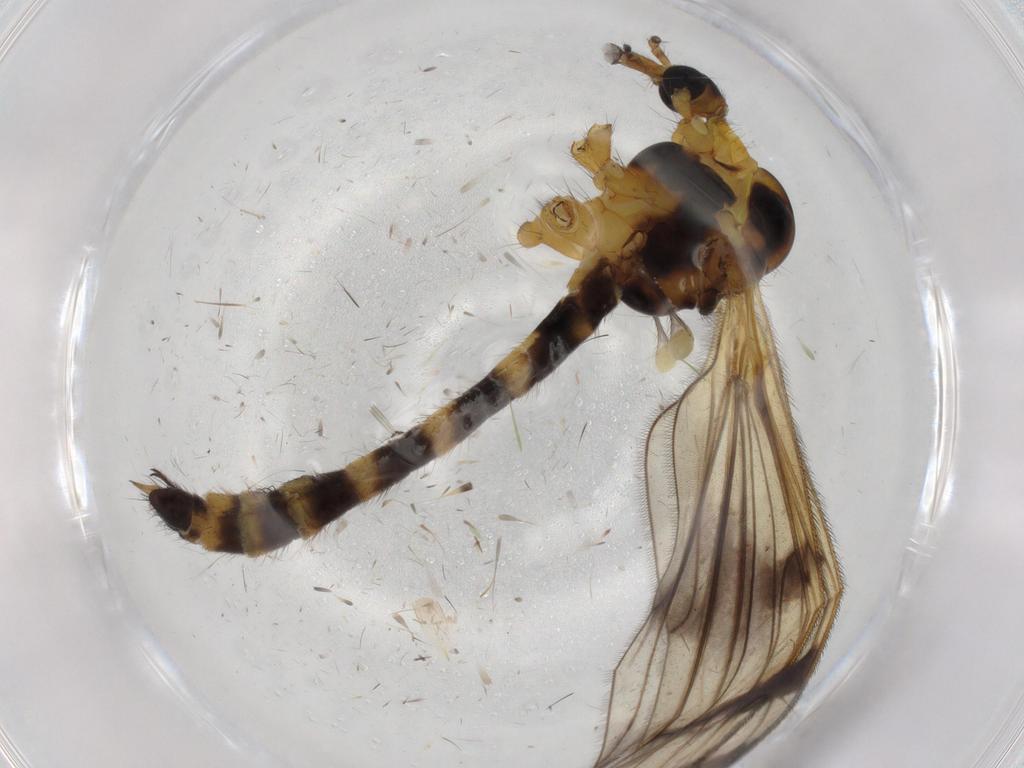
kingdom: Animalia
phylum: Arthropoda
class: Insecta
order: Diptera
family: Limoniidae
